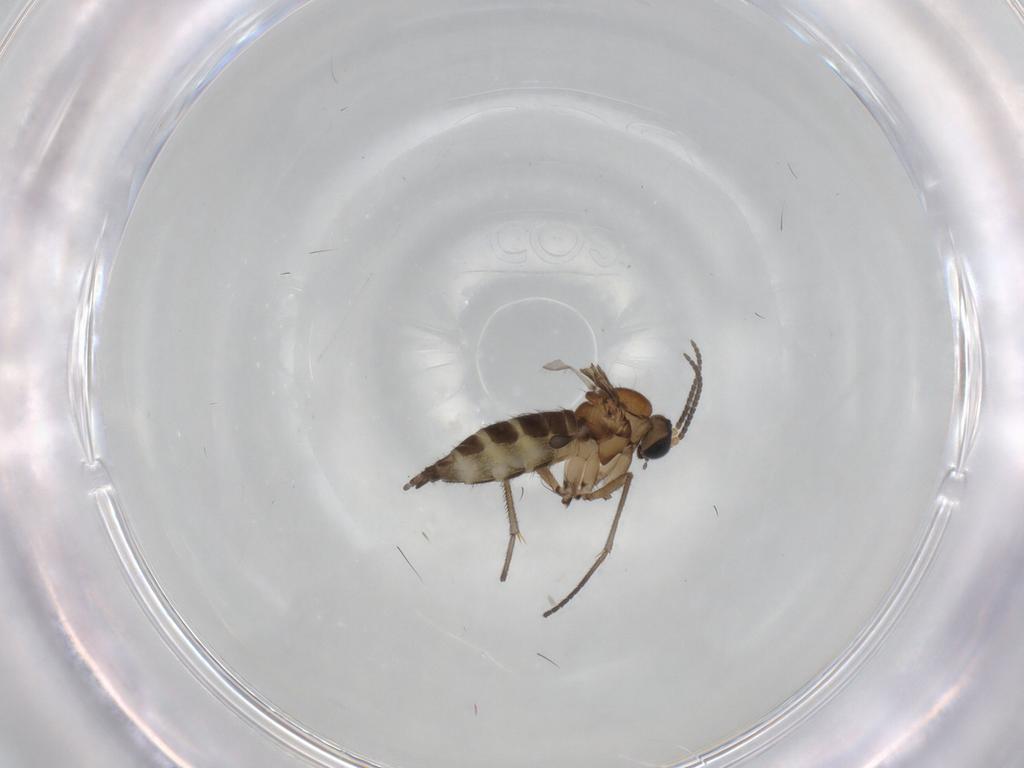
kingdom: Animalia
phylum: Arthropoda
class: Insecta
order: Diptera
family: Sciaridae
